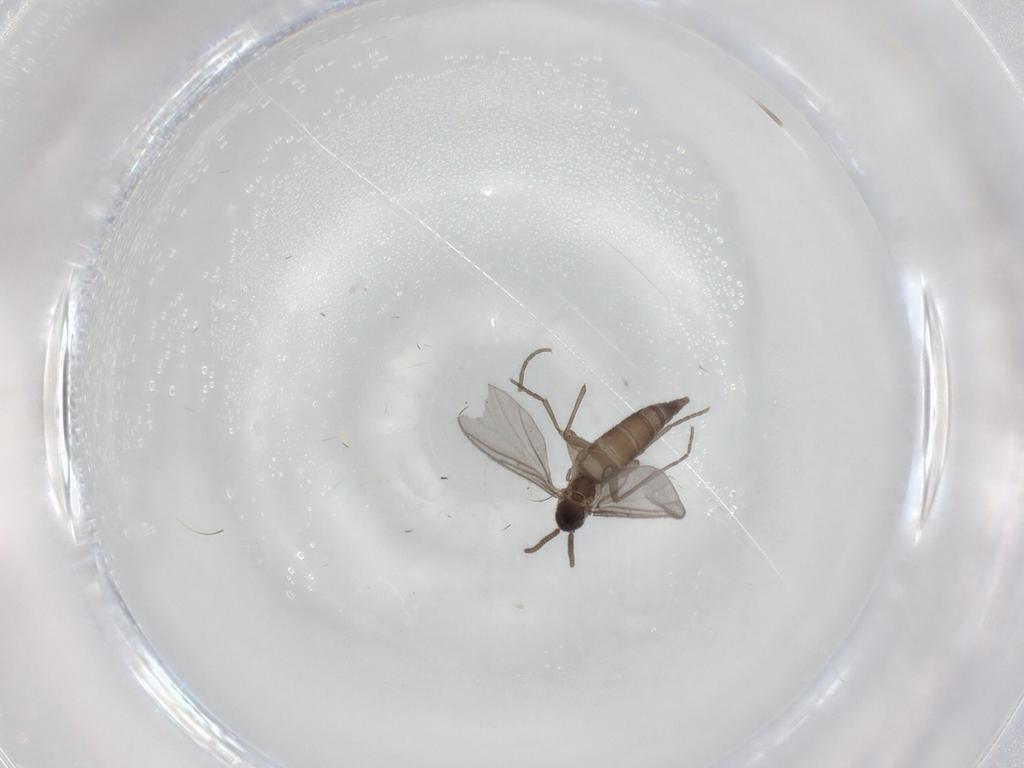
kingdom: Animalia
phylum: Arthropoda
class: Insecta
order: Diptera
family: Sciaridae
